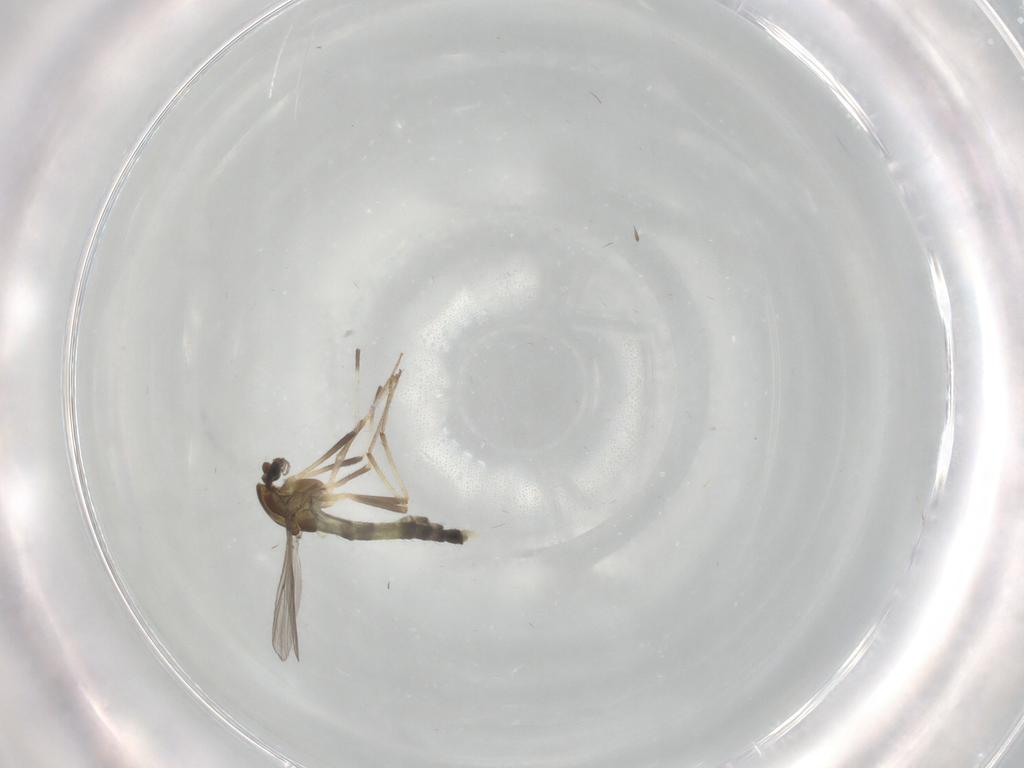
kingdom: Animalia
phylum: Arthropoda
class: Insecta
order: Diptera
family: Chironomidae
